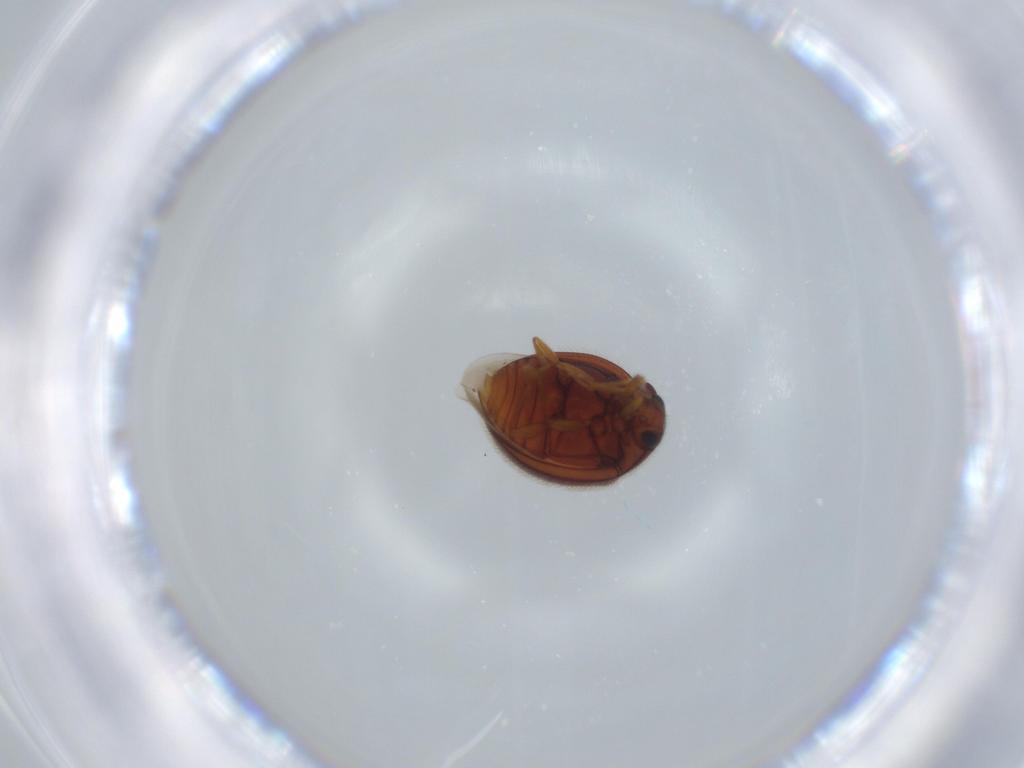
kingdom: Animalia
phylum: Arthropoda
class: Insecta
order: Coleoptera
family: Anamorphidae
